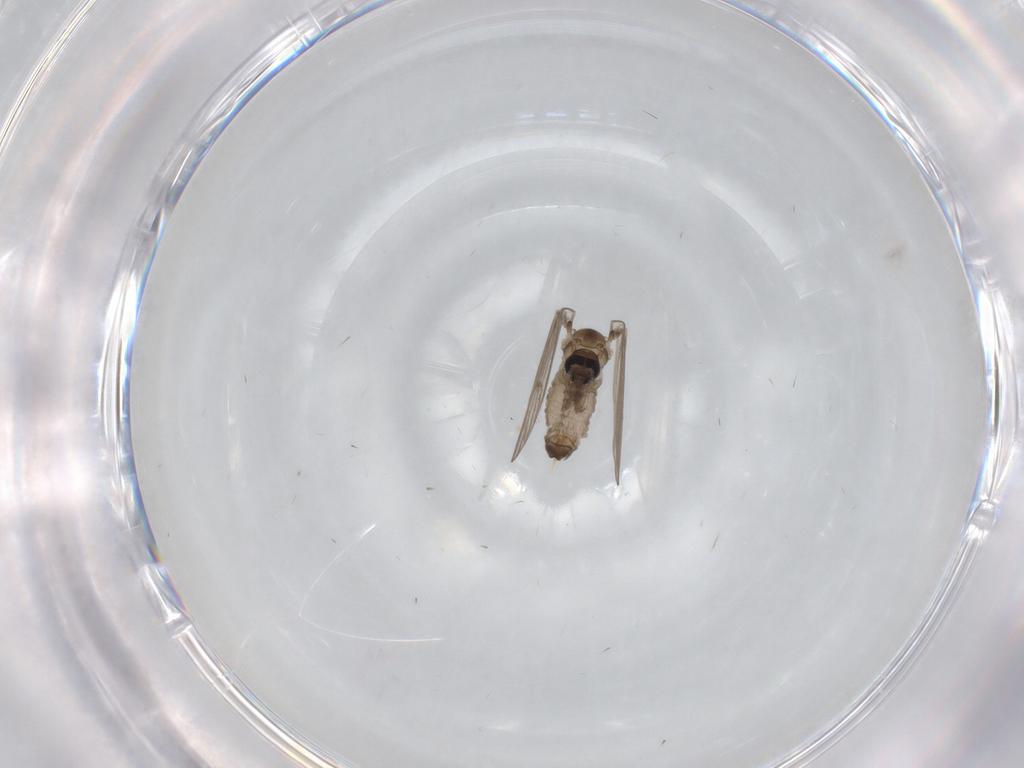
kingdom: Animalia
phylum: Arthropoda
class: Insecta
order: Diptera
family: Psychodidae
